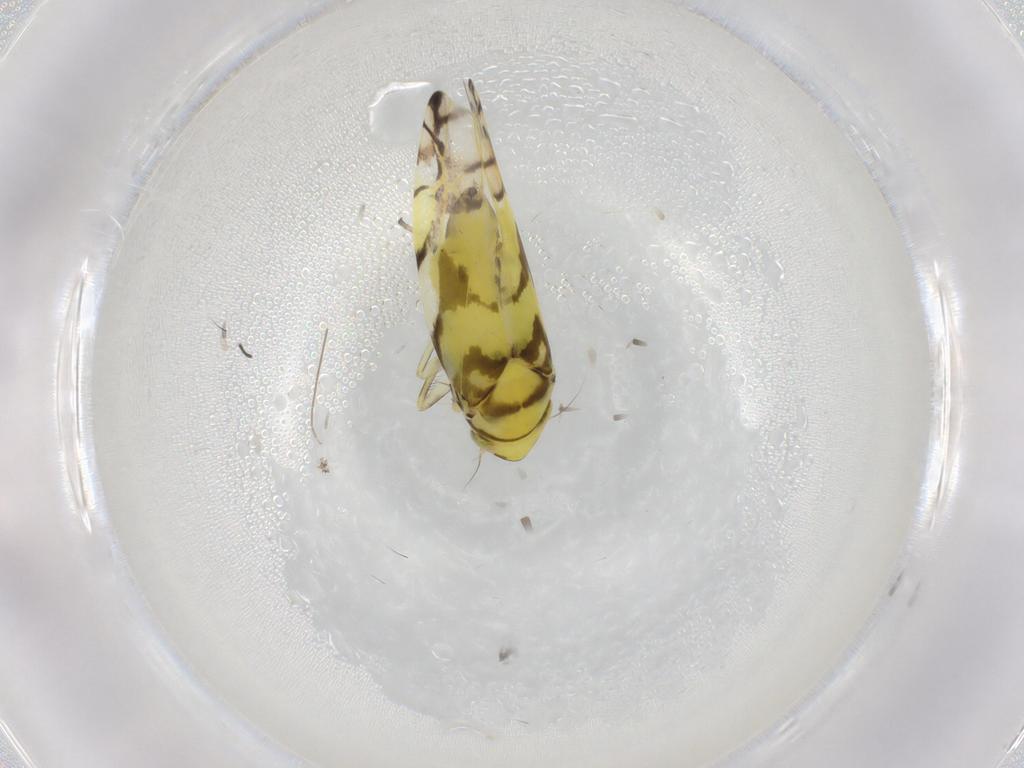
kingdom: Animalia
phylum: Arthropoda
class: Insecta
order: Hemiptera
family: Cicadellidae
